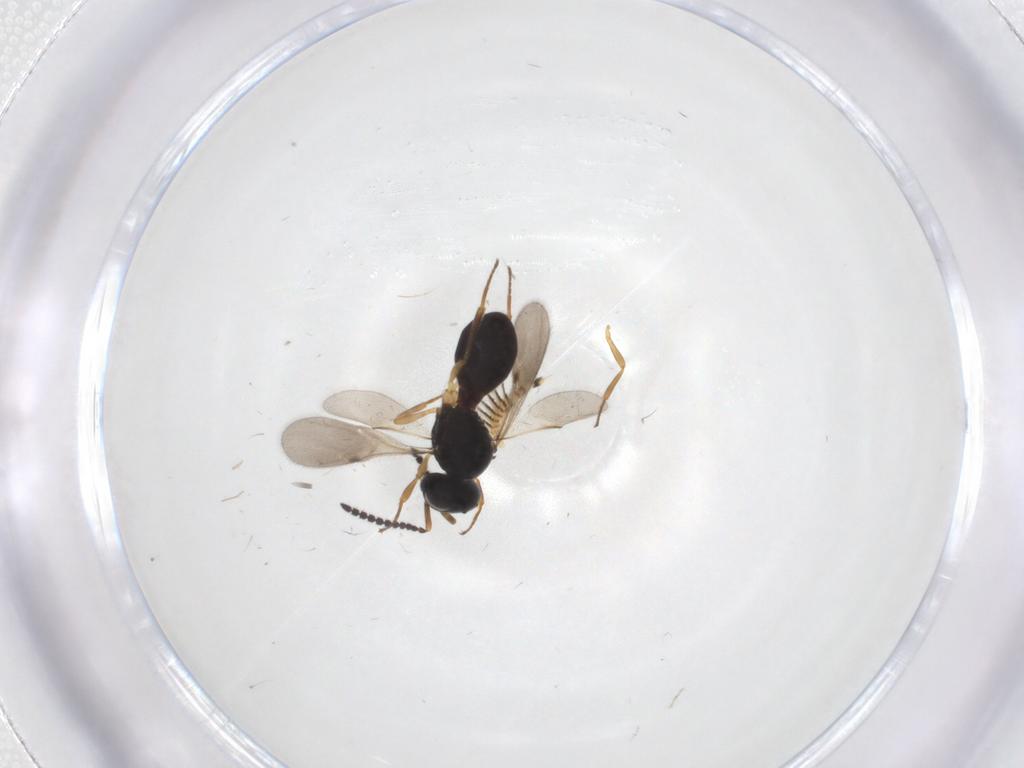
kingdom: Animalia
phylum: Arthropoda
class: Insecta
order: Hymenoptera
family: Scelionidae
